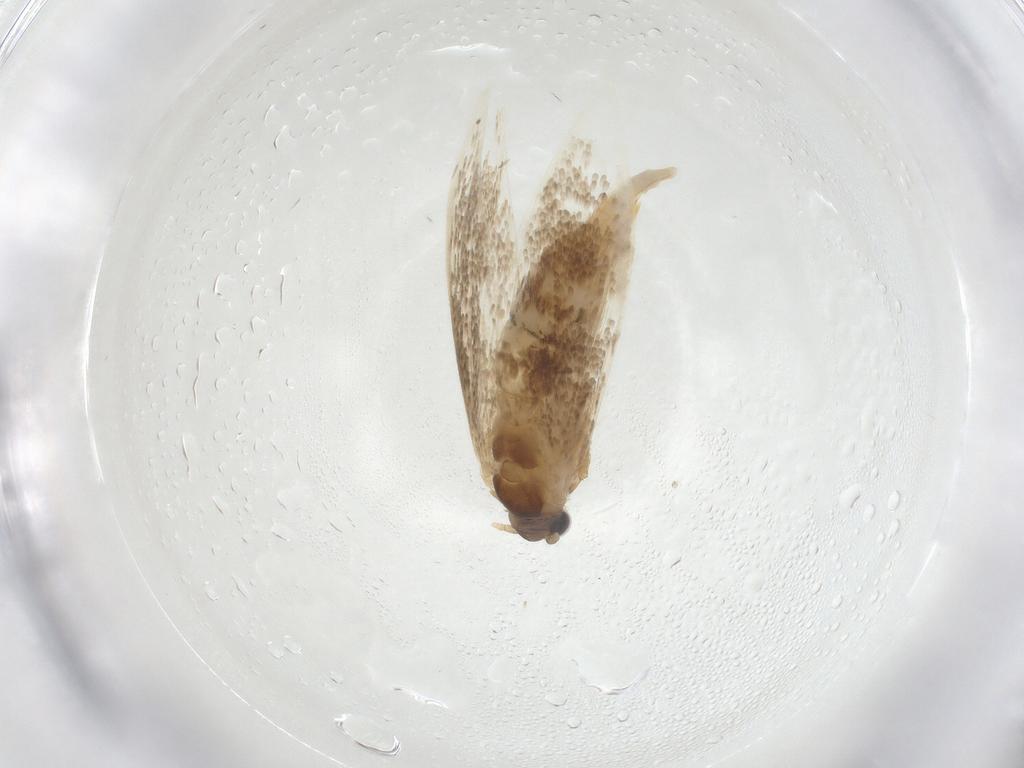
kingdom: Animalia
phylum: Arthropoda
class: Insecta
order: Lepidoptera
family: Tineidae
